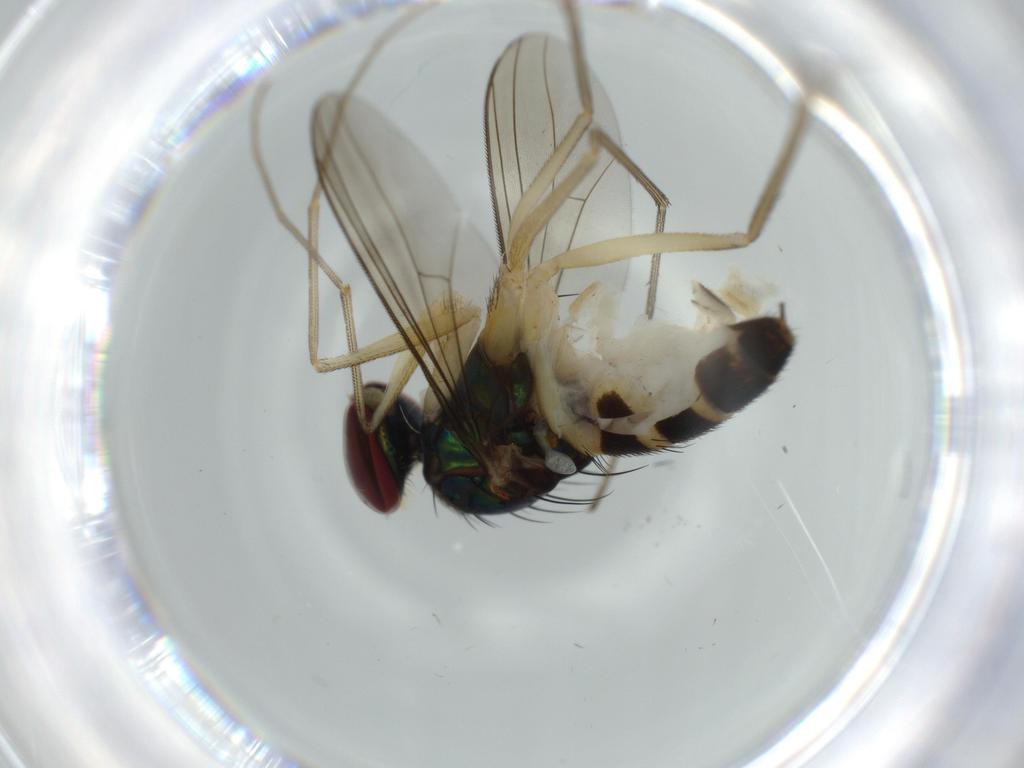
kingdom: Animalia
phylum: Arthropoda
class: Insecta
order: Diptera
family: Dolichopodidae
